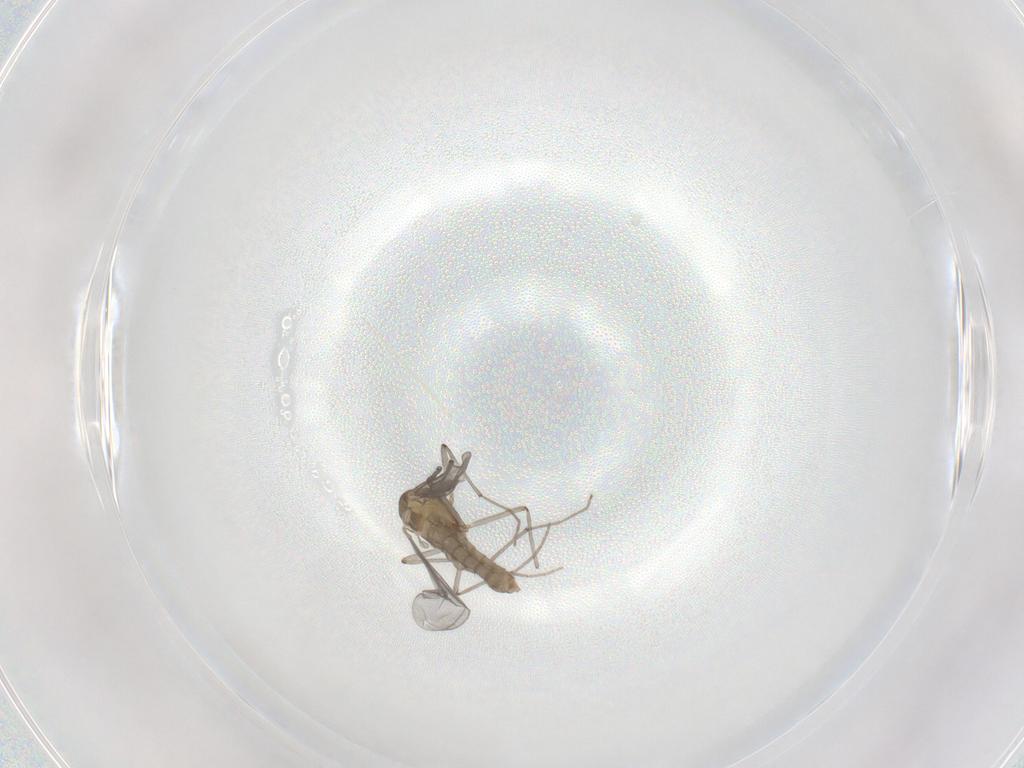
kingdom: Animalia
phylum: Arthropoda
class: Insecta
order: Diptera
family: Chironomidae
